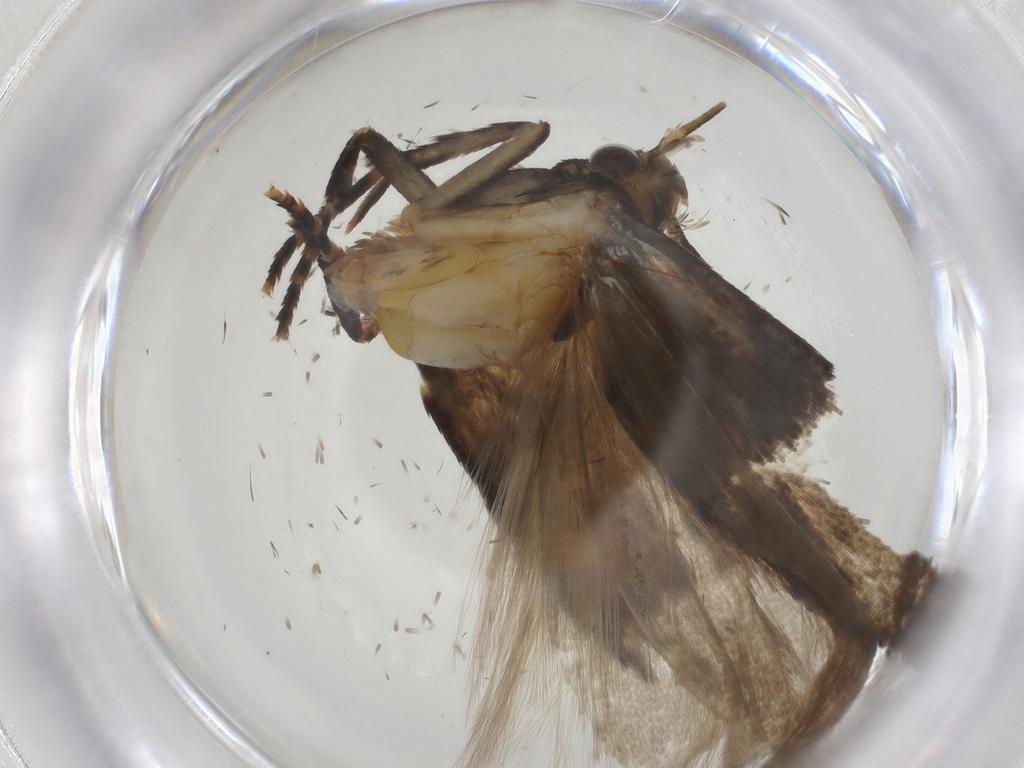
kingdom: Animalia
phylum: Arthropoda
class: Insecta
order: Lepidoptera
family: Gelechiidae
